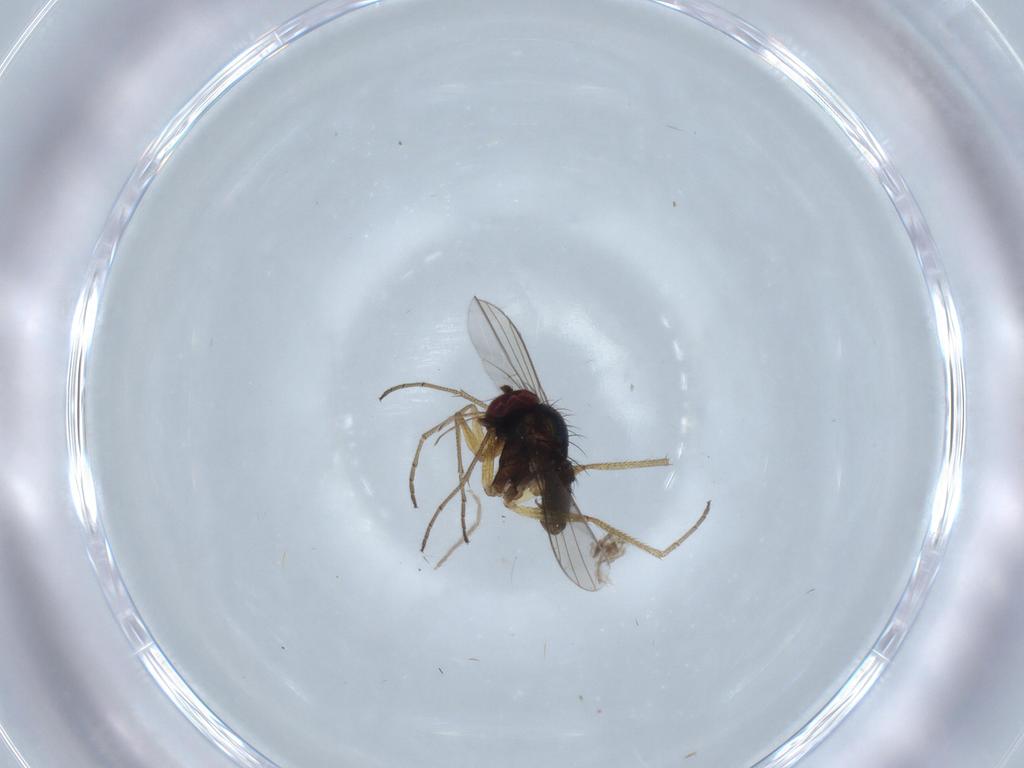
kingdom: Animalia
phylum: Arthropoda
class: Insecta
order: Diptera
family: Dolichopodidae
